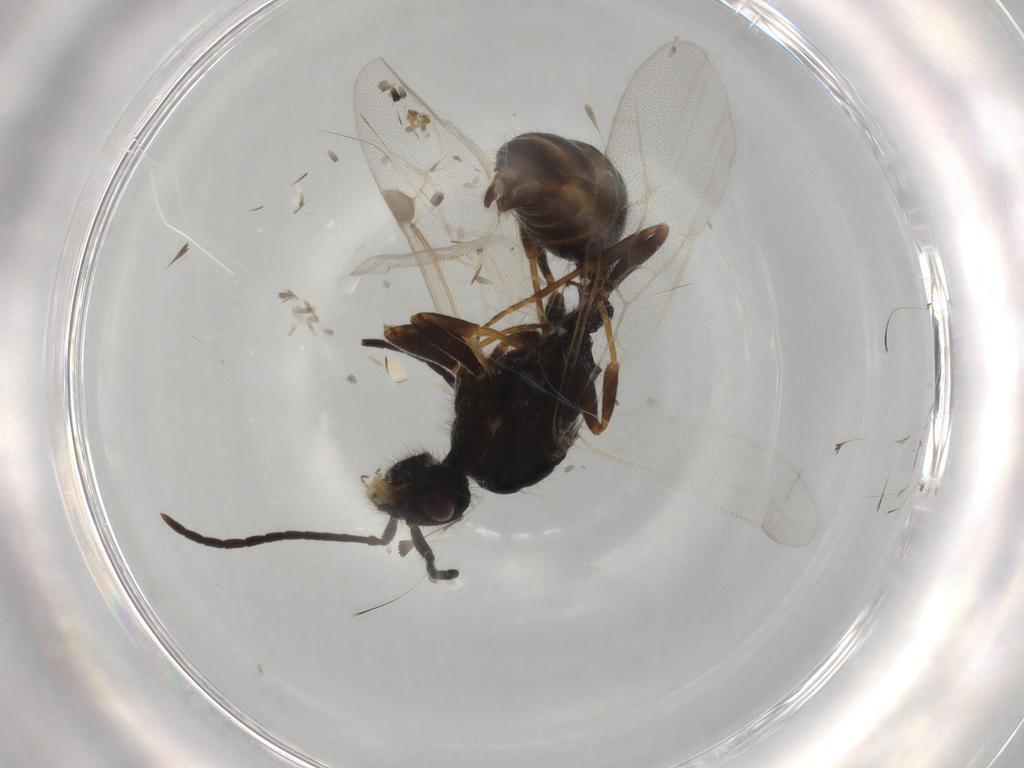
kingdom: Animalia
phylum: Arthropoda
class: Insecta
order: Hymenoptera
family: Formicidae
